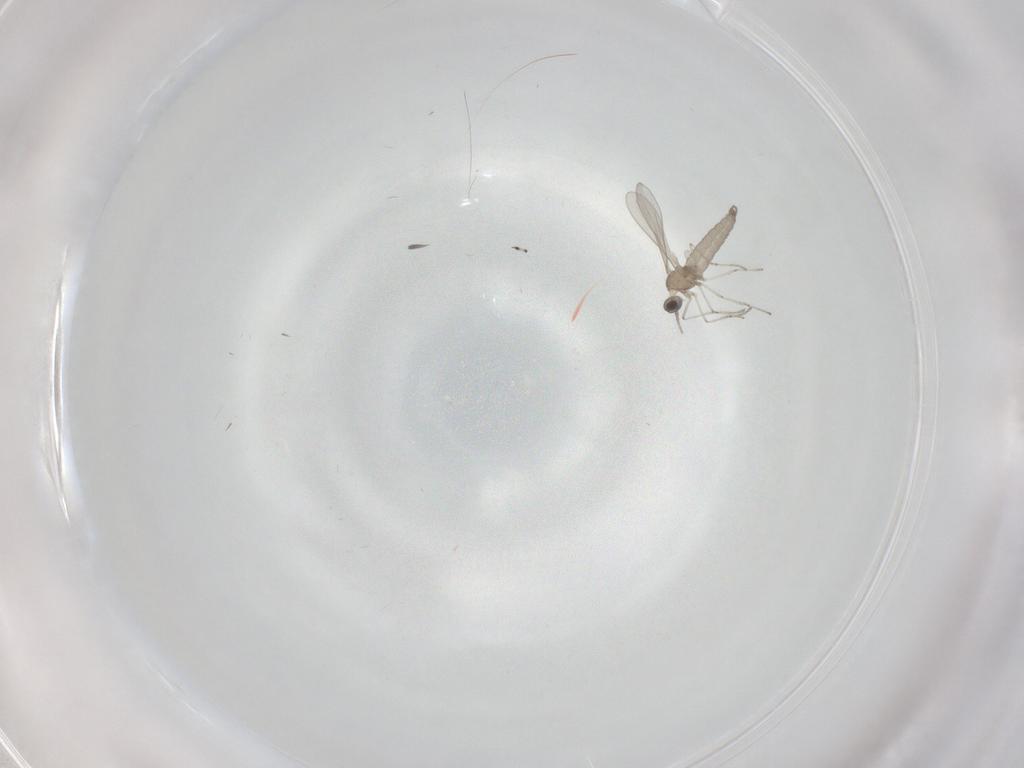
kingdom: Animalia
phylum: Arthropoda
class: Insecta
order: Diptera
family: Cecidomyiidae
